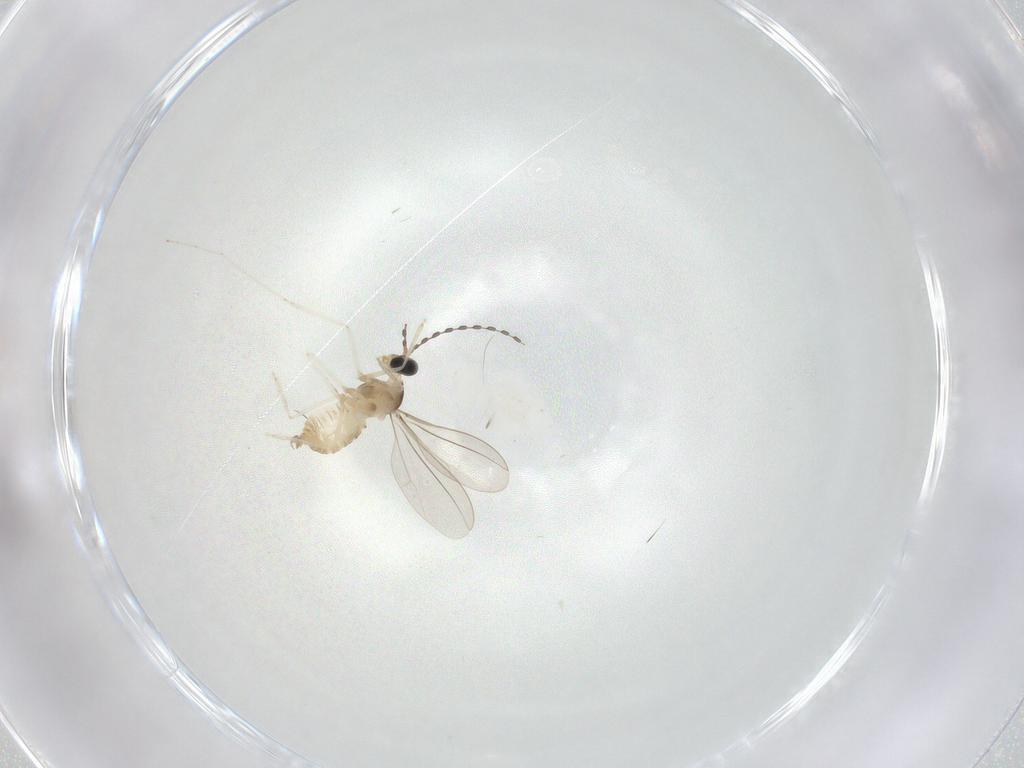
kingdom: Animalia
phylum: Arthropoda
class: Insecta
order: Diptera
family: Cecidomyiidae
